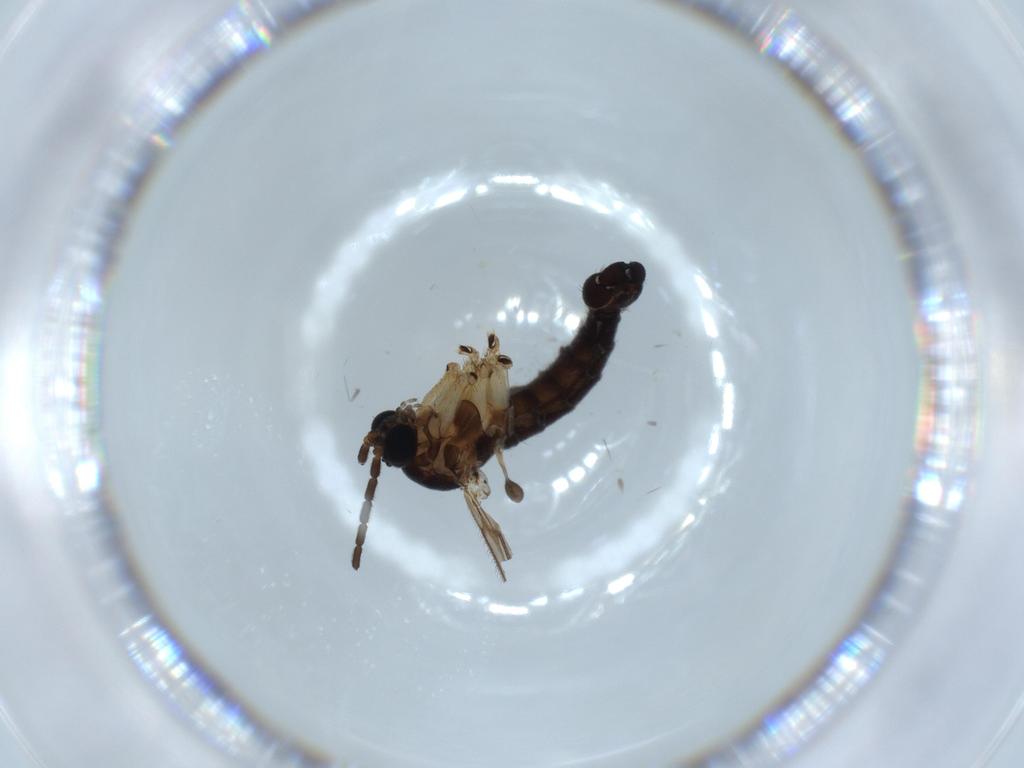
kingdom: Animalia
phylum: Arthropoda
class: Insecta
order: Diptera
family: Sciaridae
